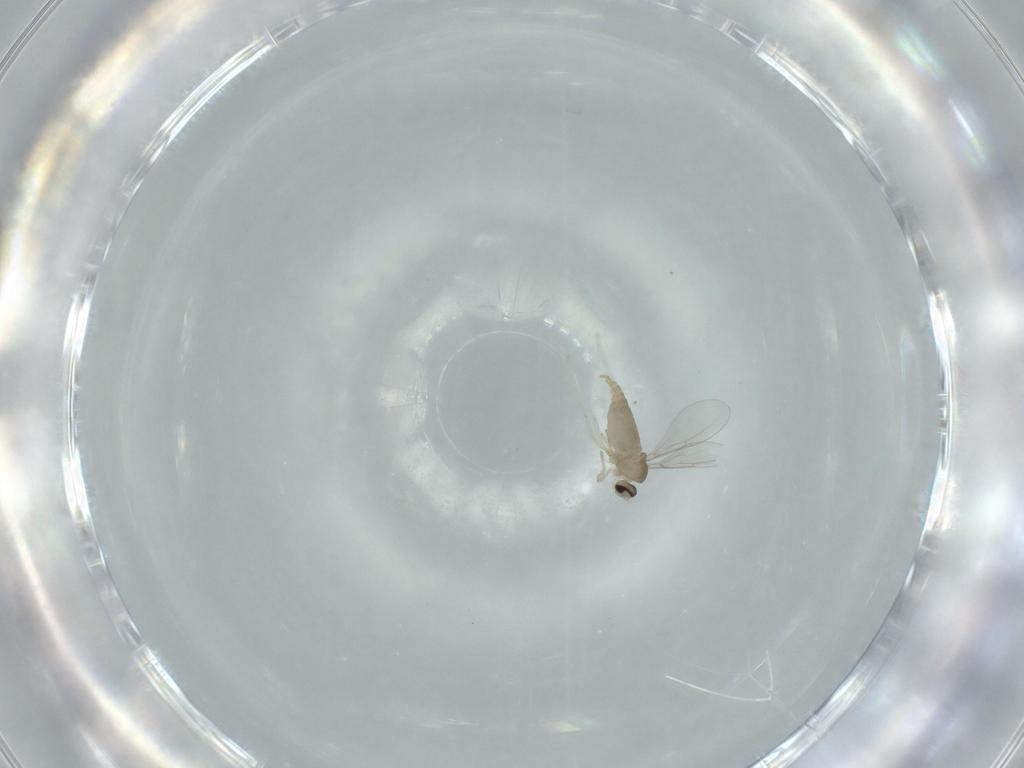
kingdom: Animalia
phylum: Arthropoda
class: Insecta
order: Diptera
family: Cecidomyiidae
